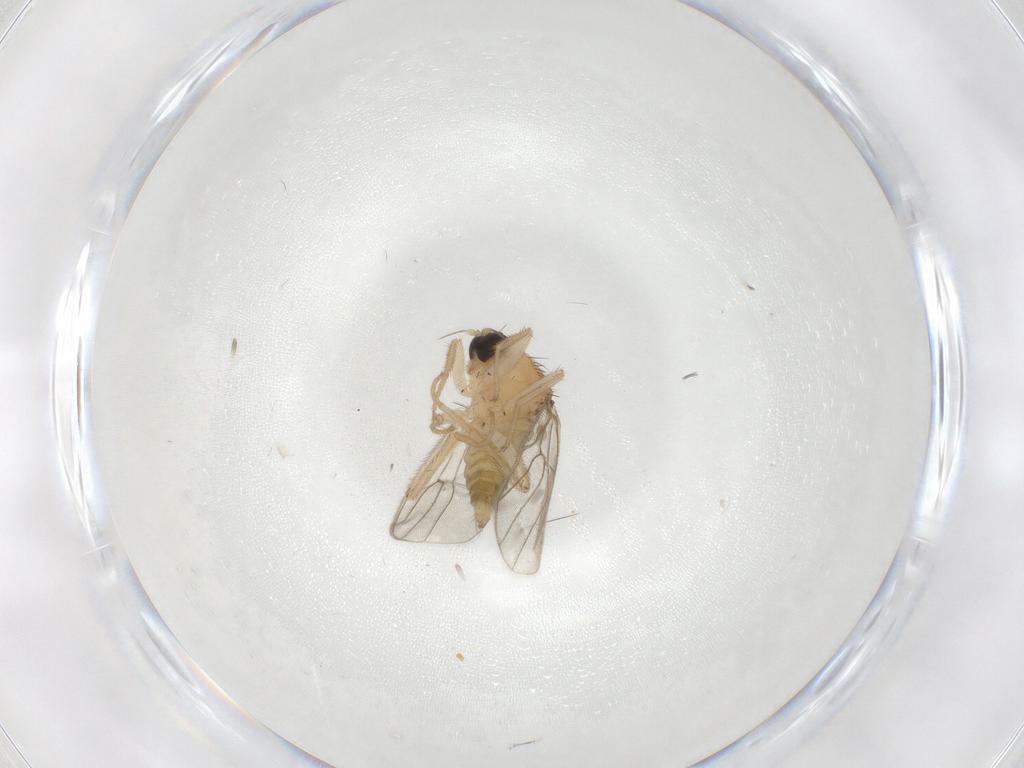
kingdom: Animalia
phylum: Arthropoda
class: Insecta
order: Diptera
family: Hybotidae
